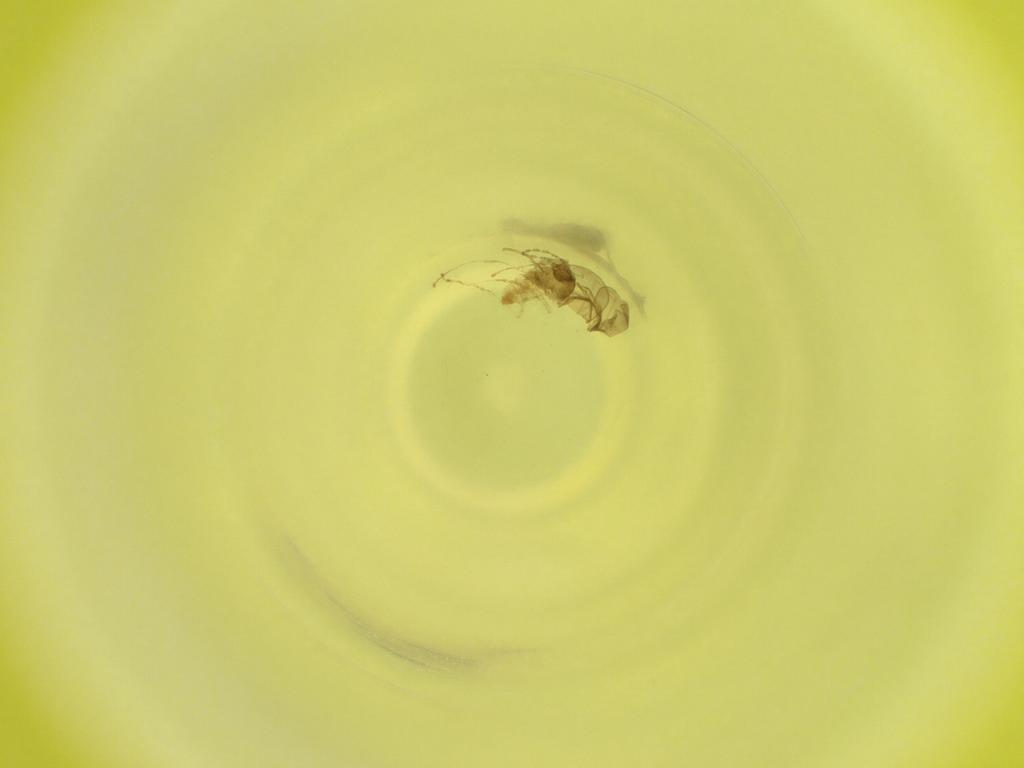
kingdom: Animalia
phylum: Arthropoda
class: Insecta
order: Diptera
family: Cecidomyiidae
